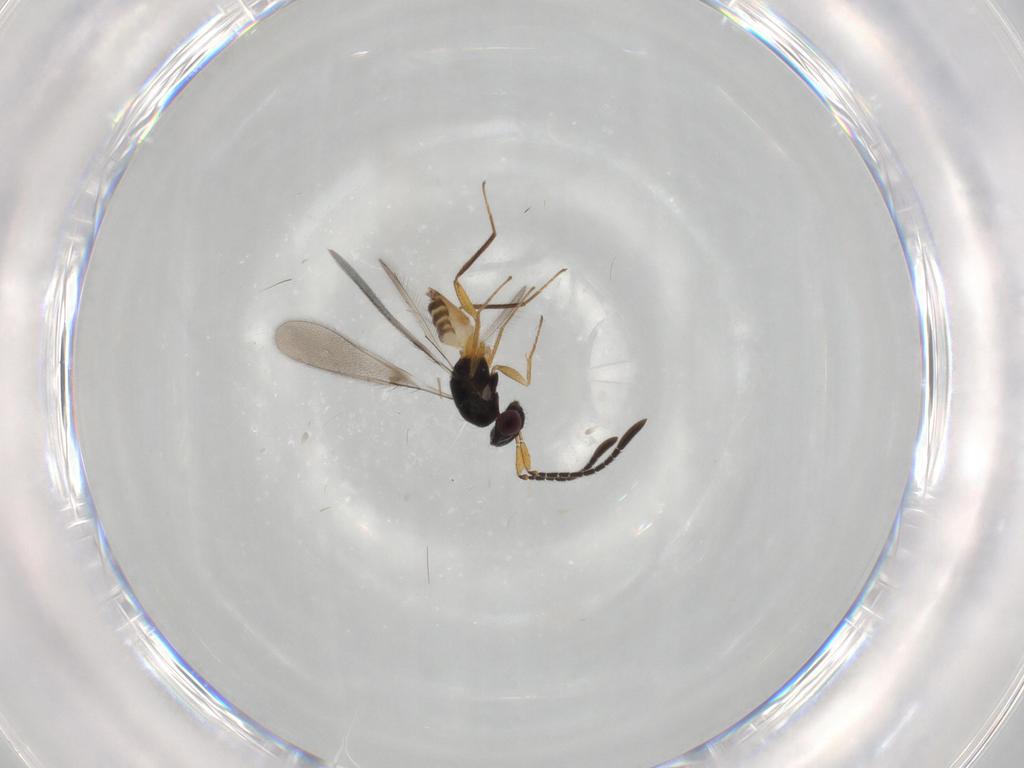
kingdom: Animalia
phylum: Arthropoda
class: Insecta
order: Hymenoptera
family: Mymaridae
